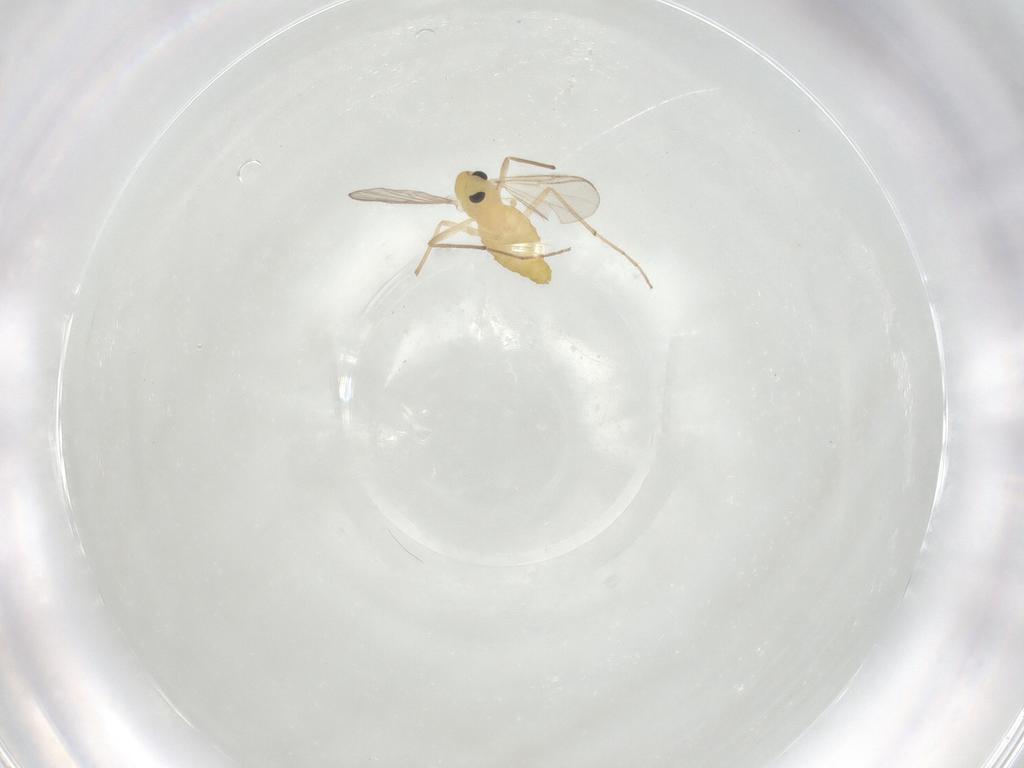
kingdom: Animalia
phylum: Arthropoda
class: Insecta
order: Diptera
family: Chironomidae
